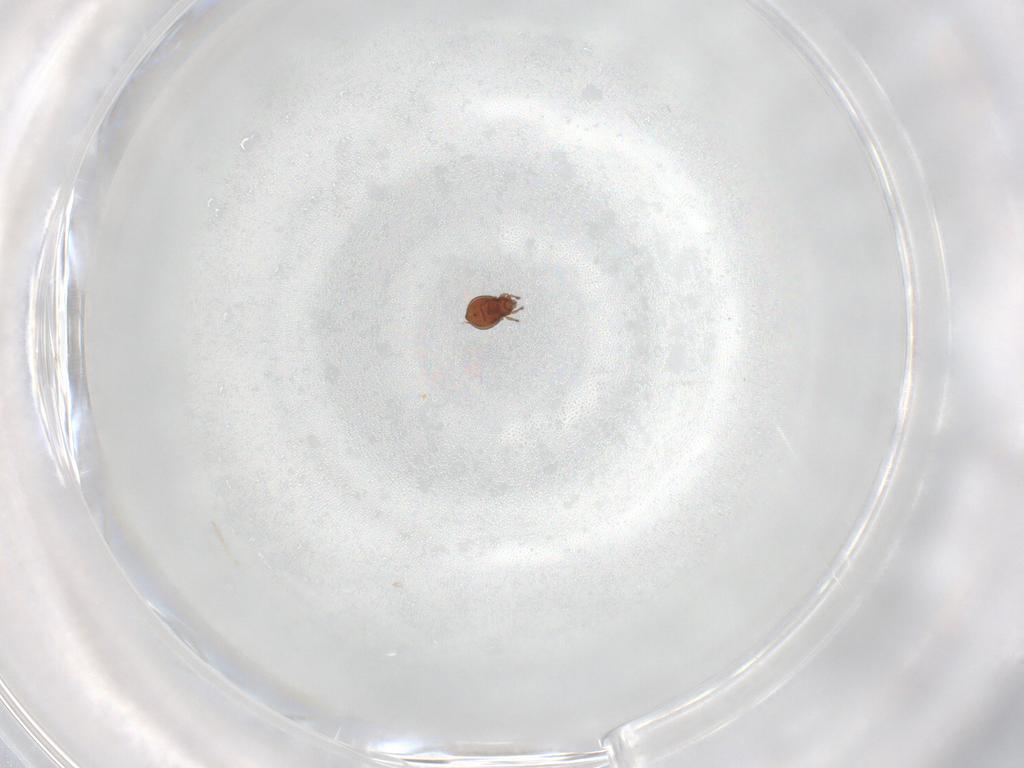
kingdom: Animalia
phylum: Arthropoda
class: Arachnida
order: Sarcoptiformes
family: Oribatulidae
